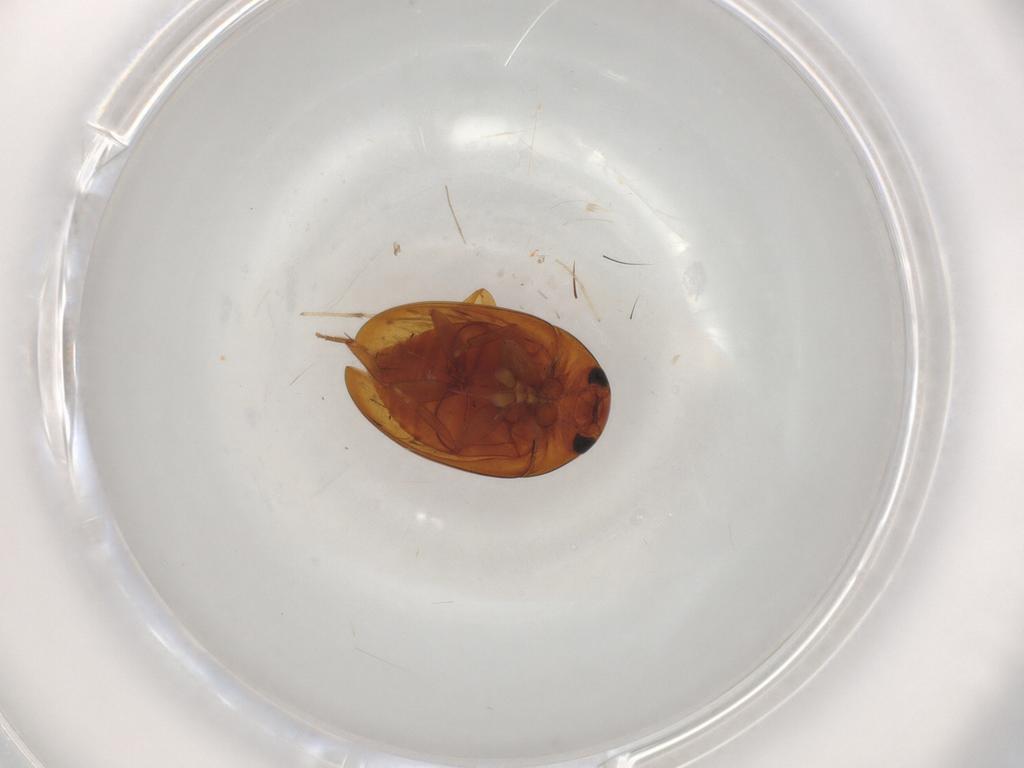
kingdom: Animalia
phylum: Arthropoda
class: Insecta
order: Coleoptera
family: Phalacridae
